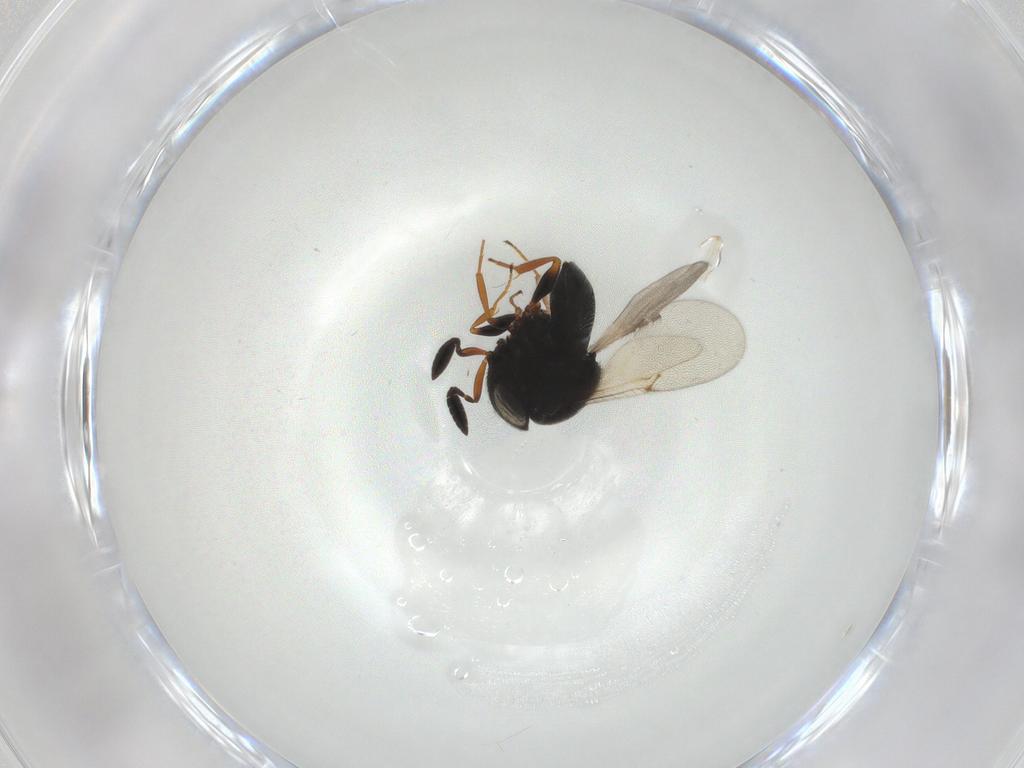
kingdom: Animalia
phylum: Arthropoda
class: Insecta
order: Hymenoptera
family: Scelionidae
